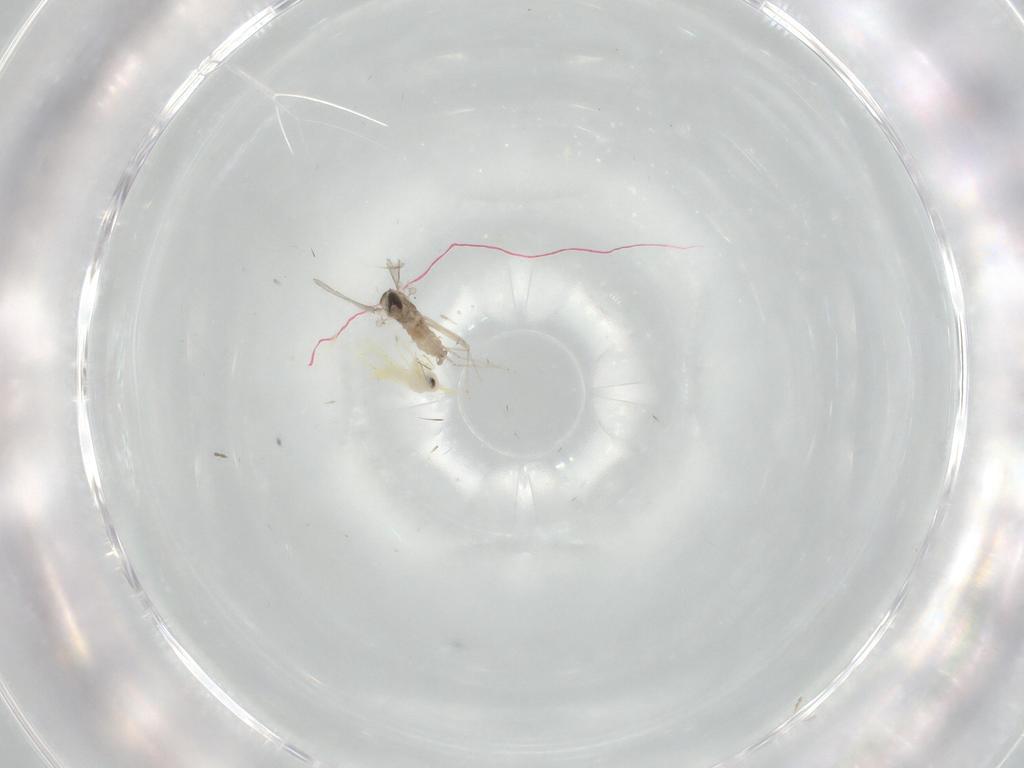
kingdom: Animalia
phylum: Arthropoda
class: Insecta
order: Diptera
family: Cecidomyiidae
